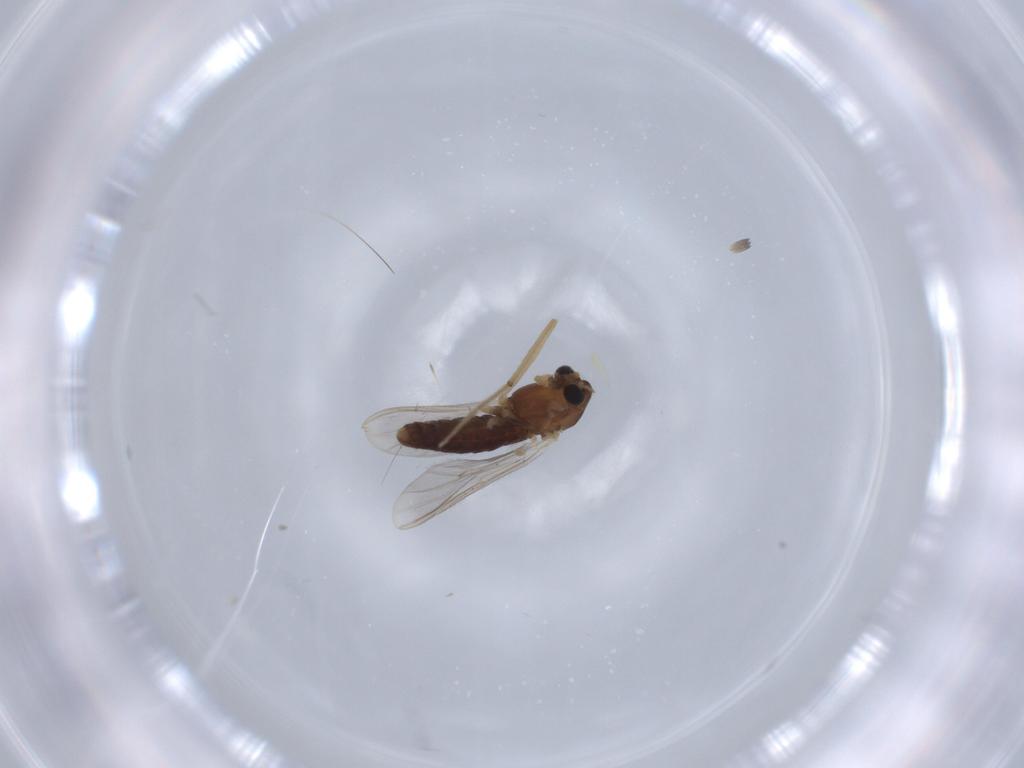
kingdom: Animalia
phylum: Arthropoda
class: Insecta
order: Diptera
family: Chironomidae
